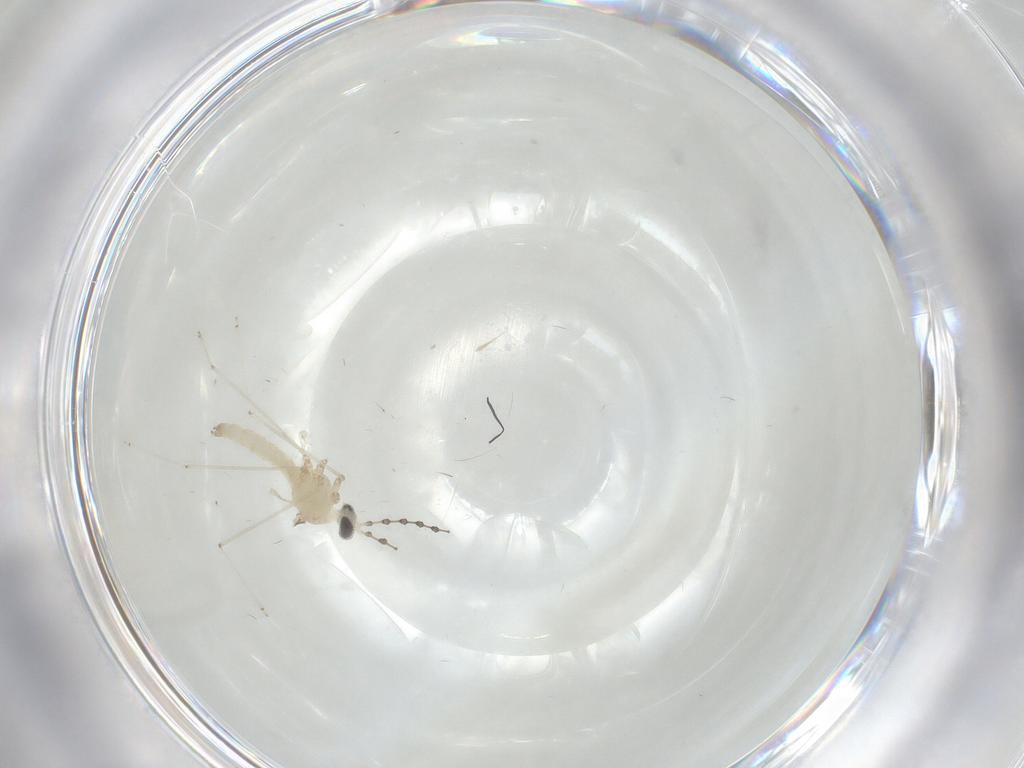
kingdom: Animalia
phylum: Arthropoda
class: Insecta
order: Diptera
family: Cecidomyiidae
